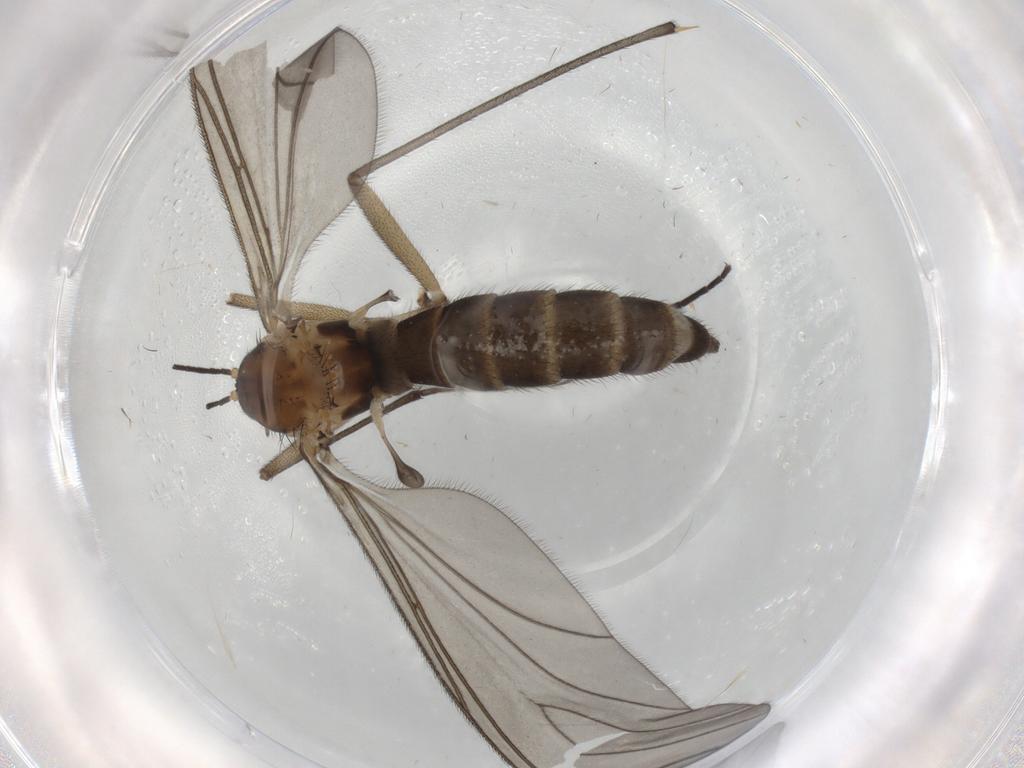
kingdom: Animalia
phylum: Arthropoda
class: Insecta
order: Diptera
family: Sciaridae
